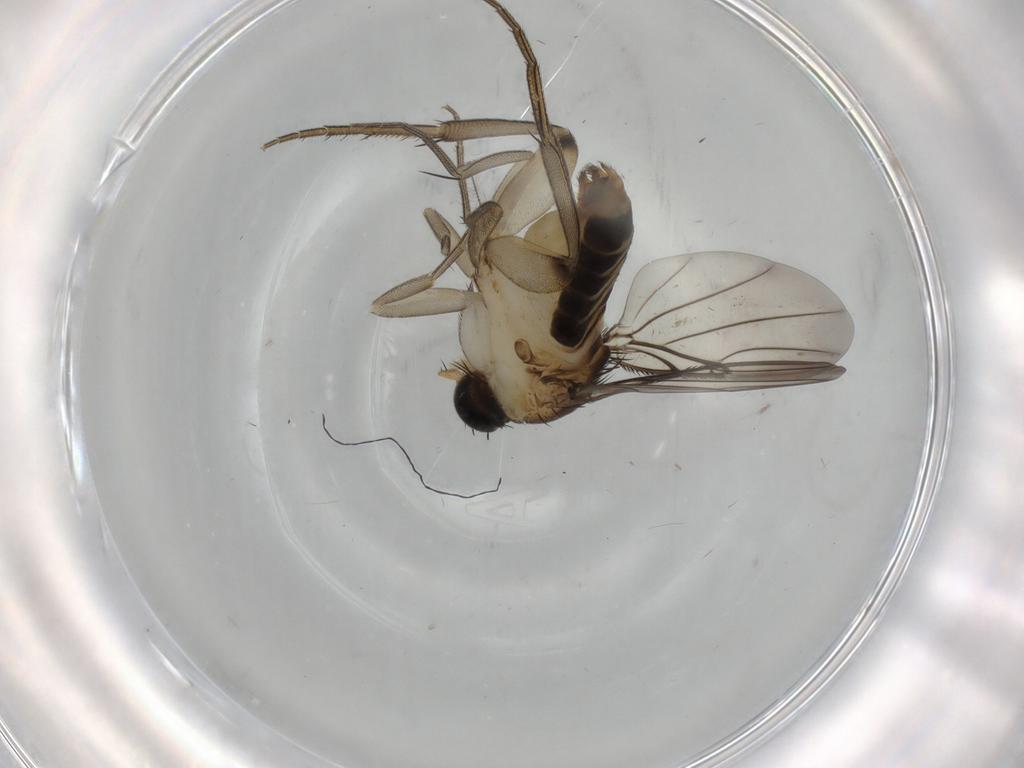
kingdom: Animalia
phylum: Arthropoda
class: Insecta
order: Diptera
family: Phoridae
